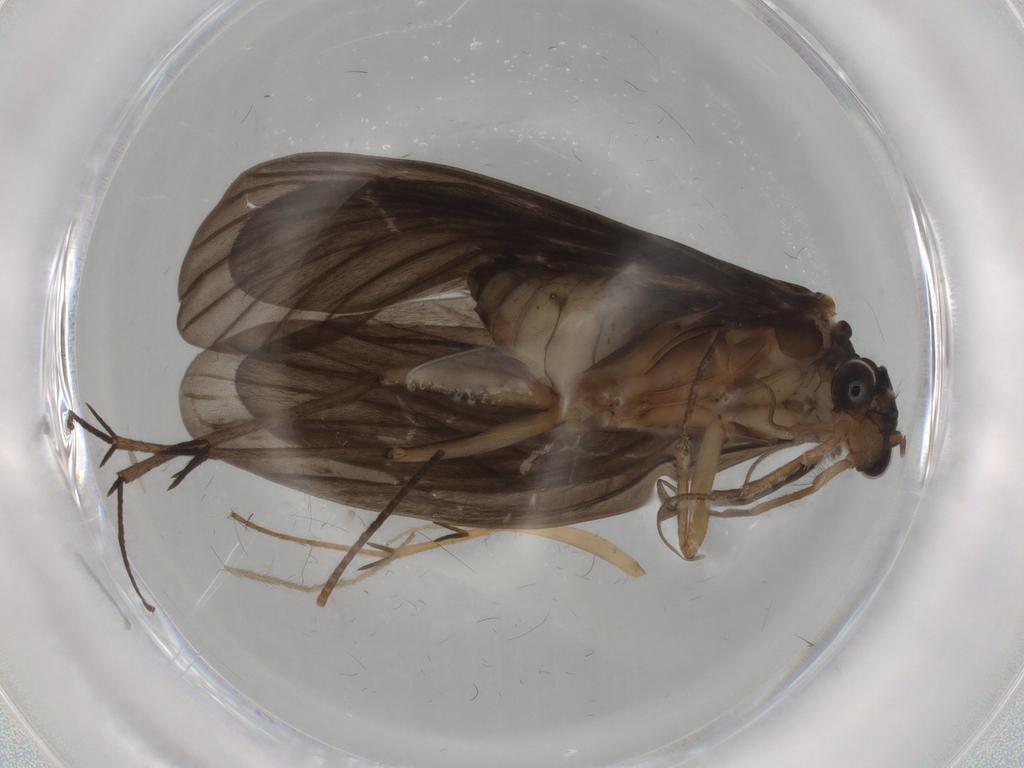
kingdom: Animalia
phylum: Arthropoda
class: Insecta
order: Trichoptera
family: Philopotamidae
